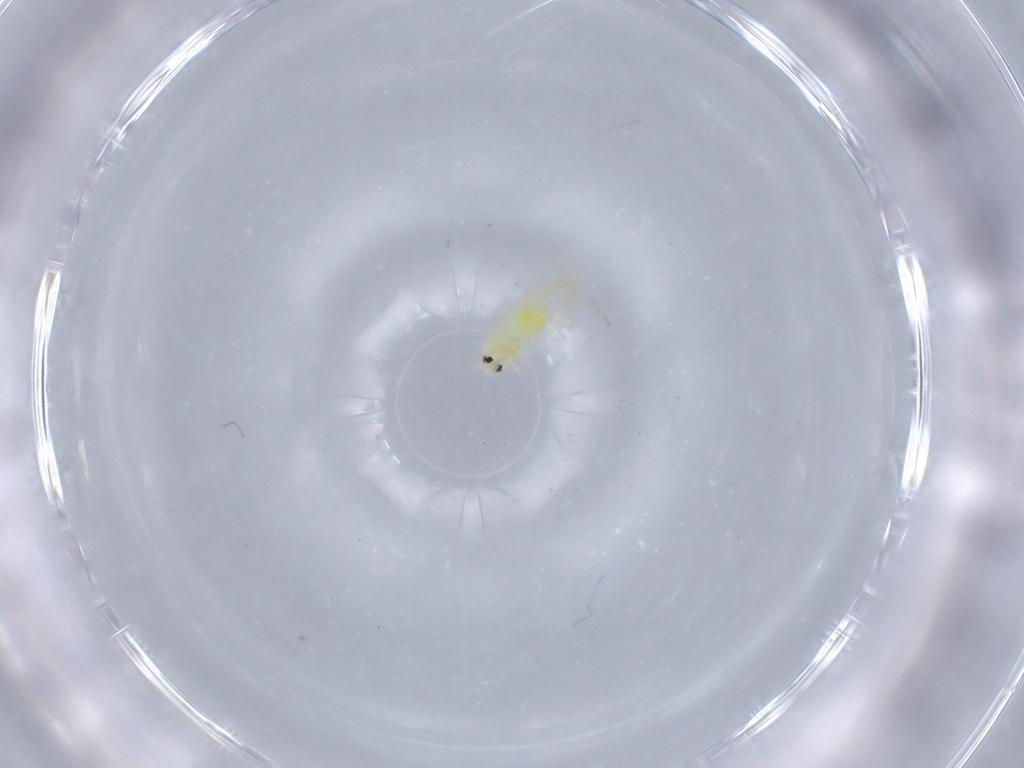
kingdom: Animalia
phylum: Arthropoda
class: Insecta
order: Hemiptera
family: Aleyrodidae
